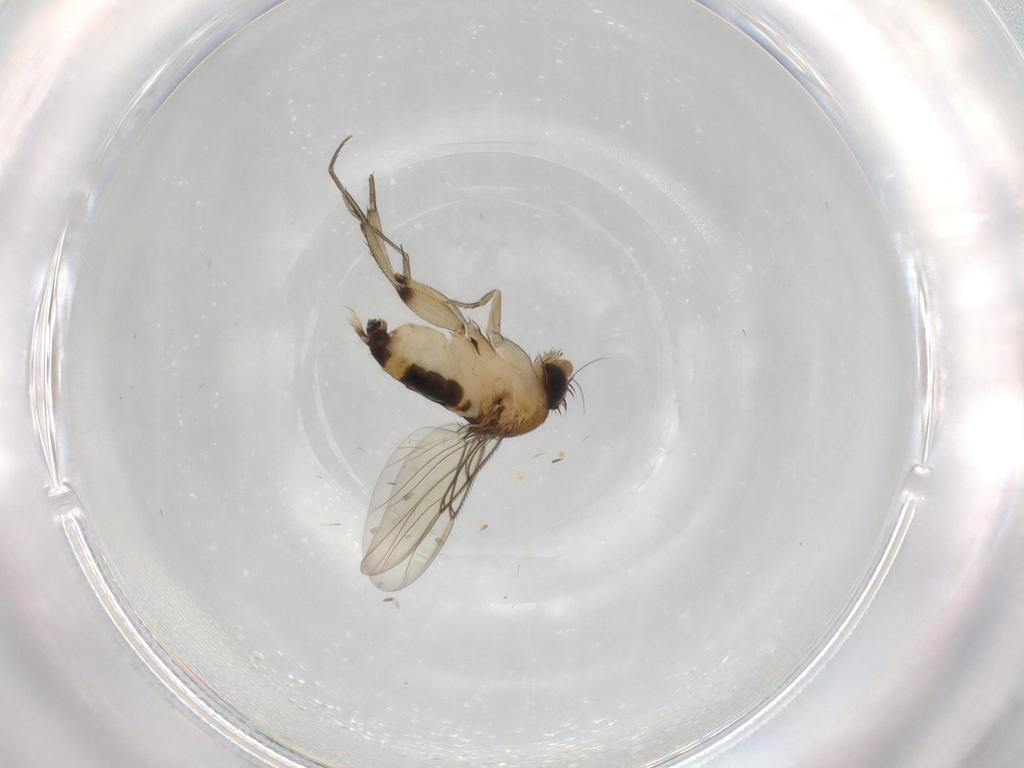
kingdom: Animalia
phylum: Arthropoda
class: Insecta
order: Diptera
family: Phoridae
